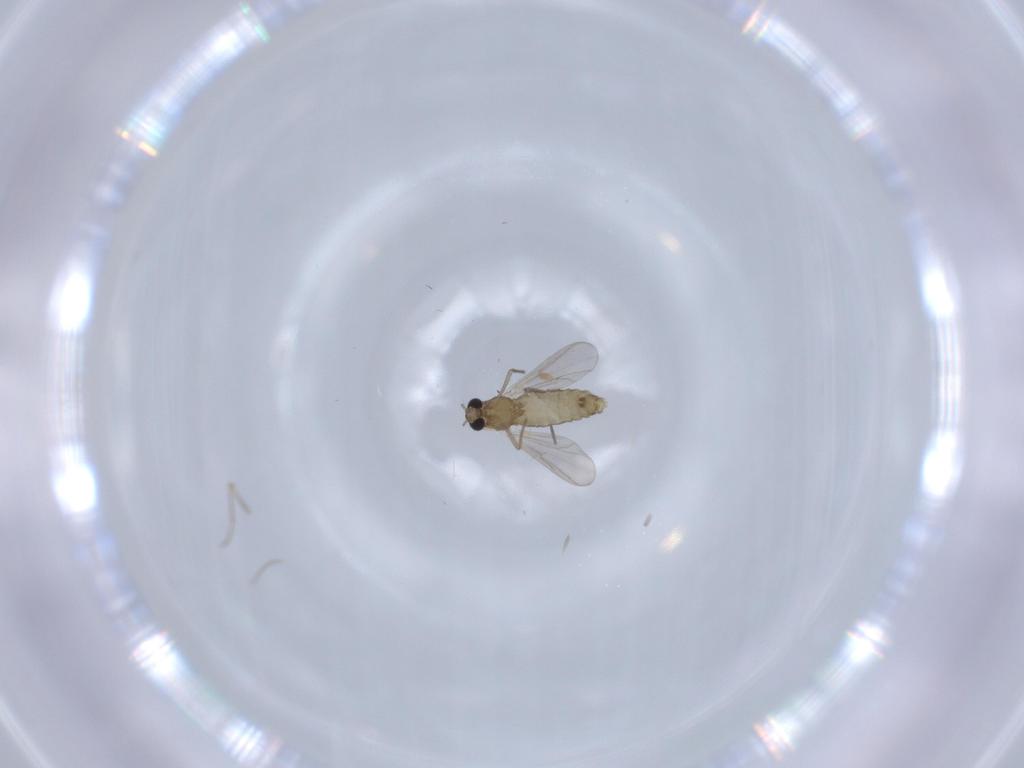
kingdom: Animalia
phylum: Arthropoda
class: Insecta
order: Diptera
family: Chironomidae
